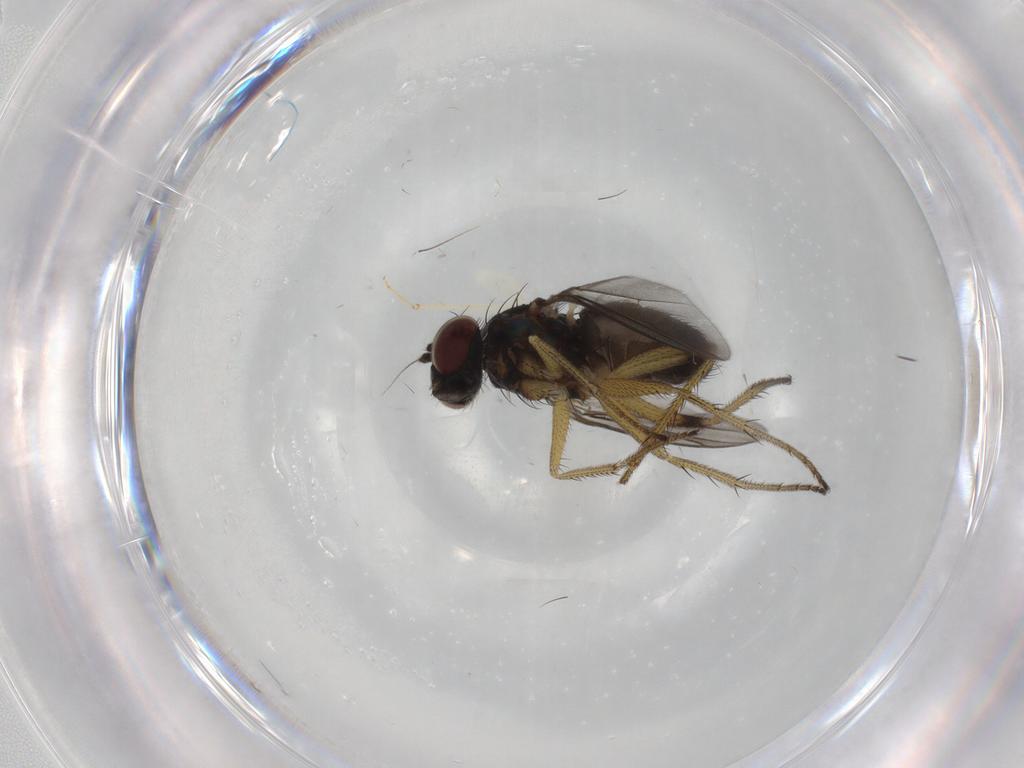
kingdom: Animalia
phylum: Arthropoda
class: Insecta
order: Diptera
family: Dolichopodidae
